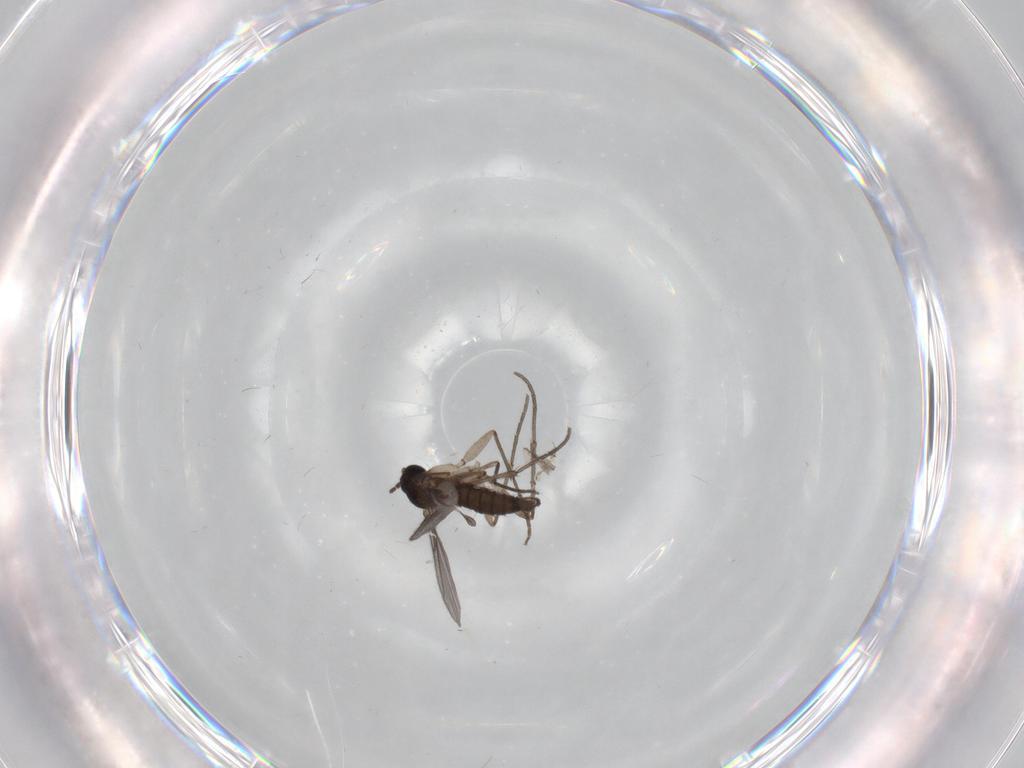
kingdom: Animalia
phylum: Arthropoda
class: Insecta
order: Diptera
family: Sciaridae
